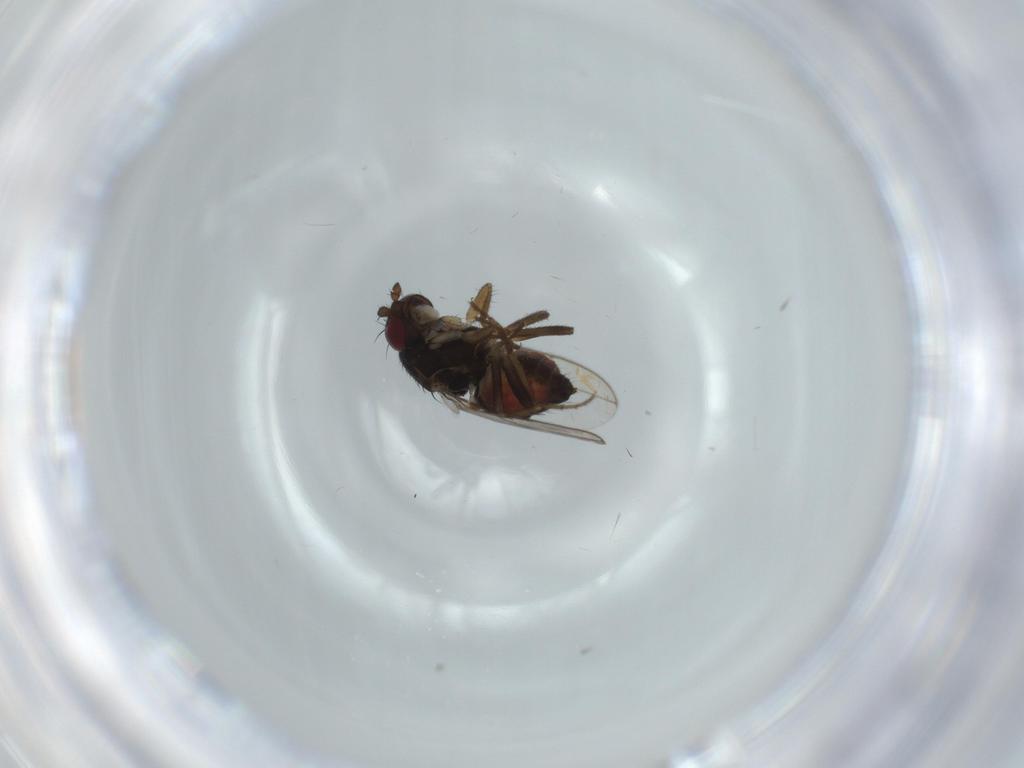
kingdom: Animalia
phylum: Arthropoda
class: Insecta
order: Diptera
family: Sphaeroceridae
